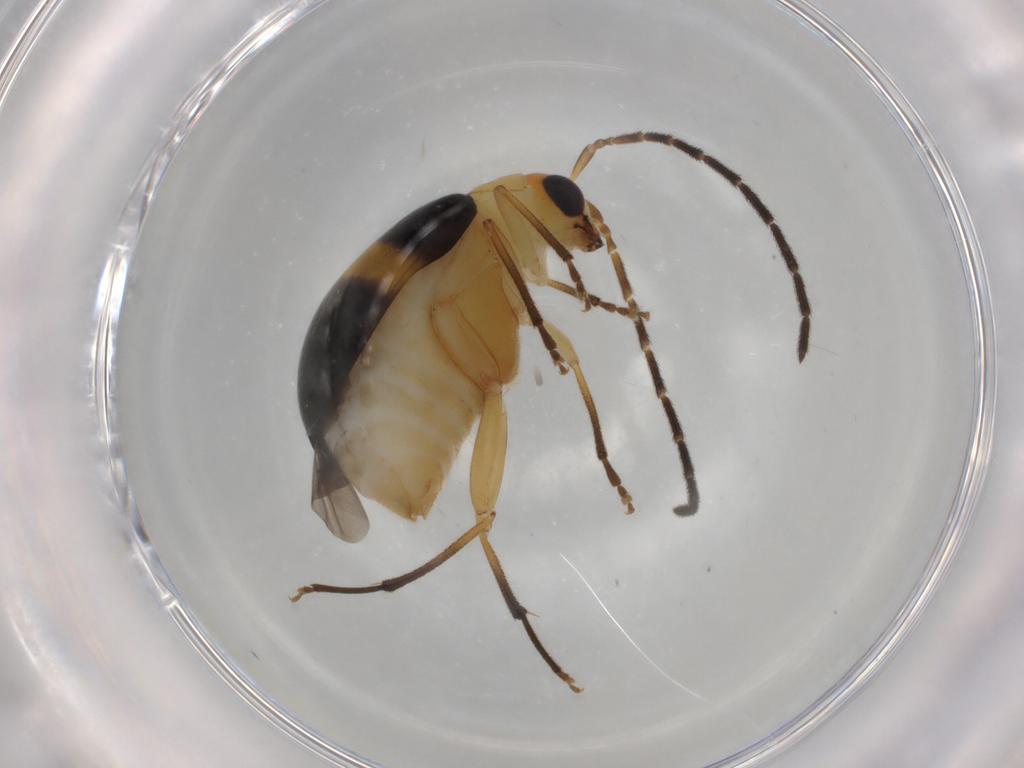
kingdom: Animalia
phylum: Arthropoda
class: Insecta
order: Coleoptera
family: Chrysomelidae
